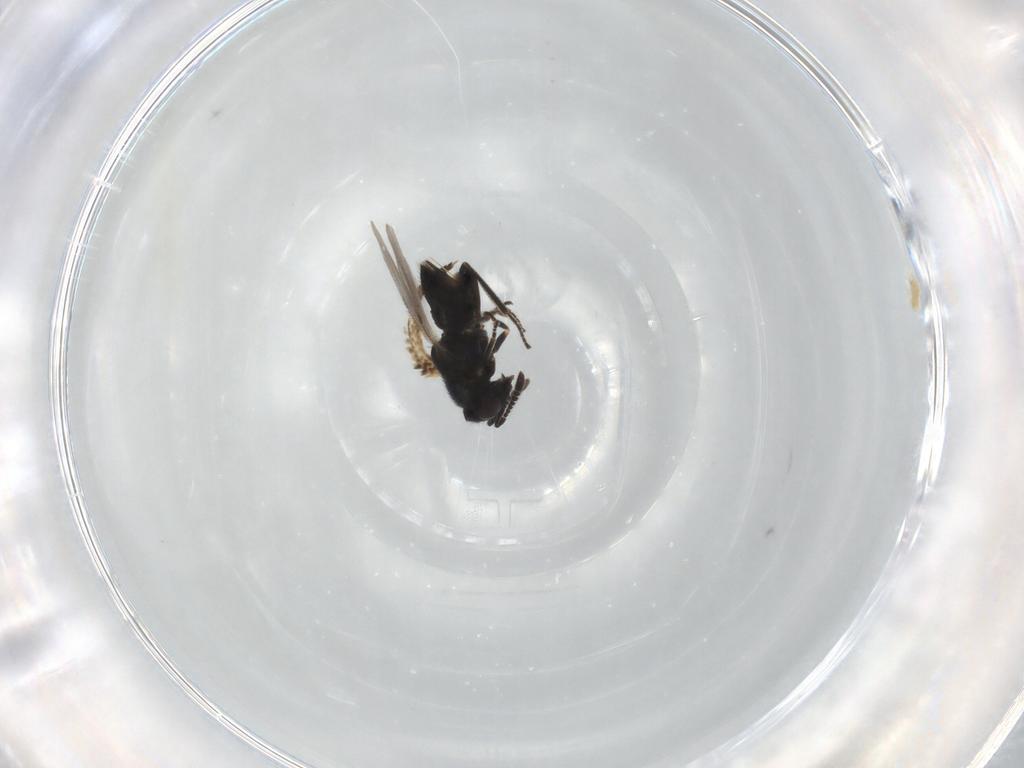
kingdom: Animalia
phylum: Arthropoda
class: Insecta
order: Hymenoptera
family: Encyrtidae
